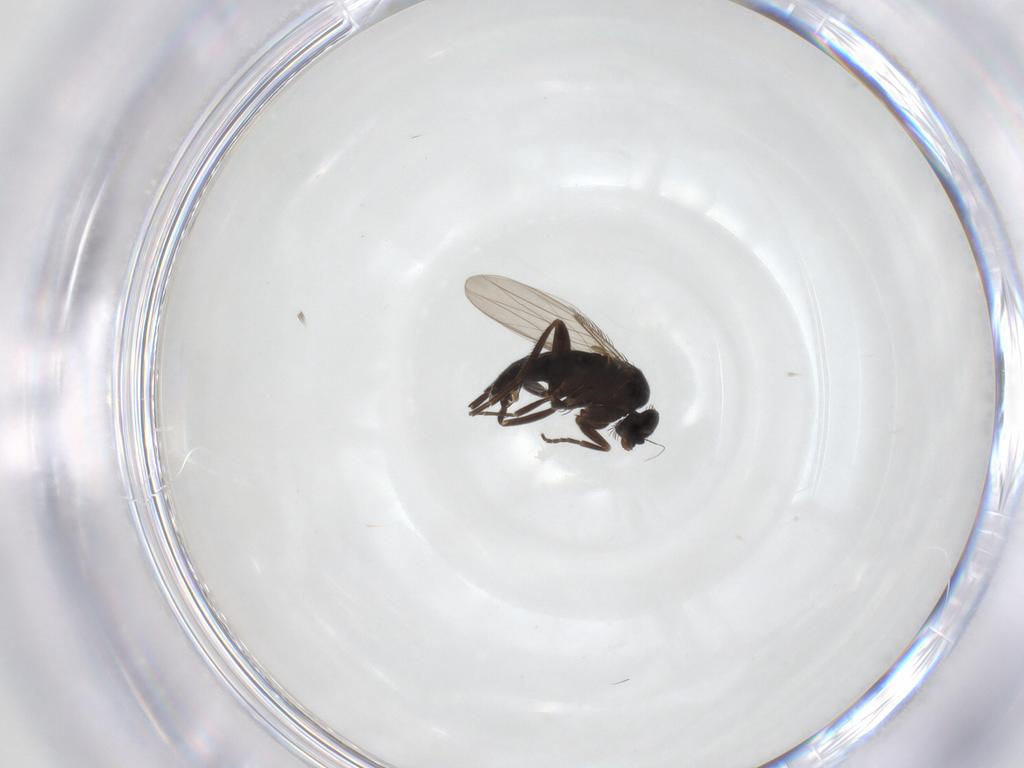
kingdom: Animalia
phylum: Arthropoda
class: Insecta
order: Diptera
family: Phoridae
